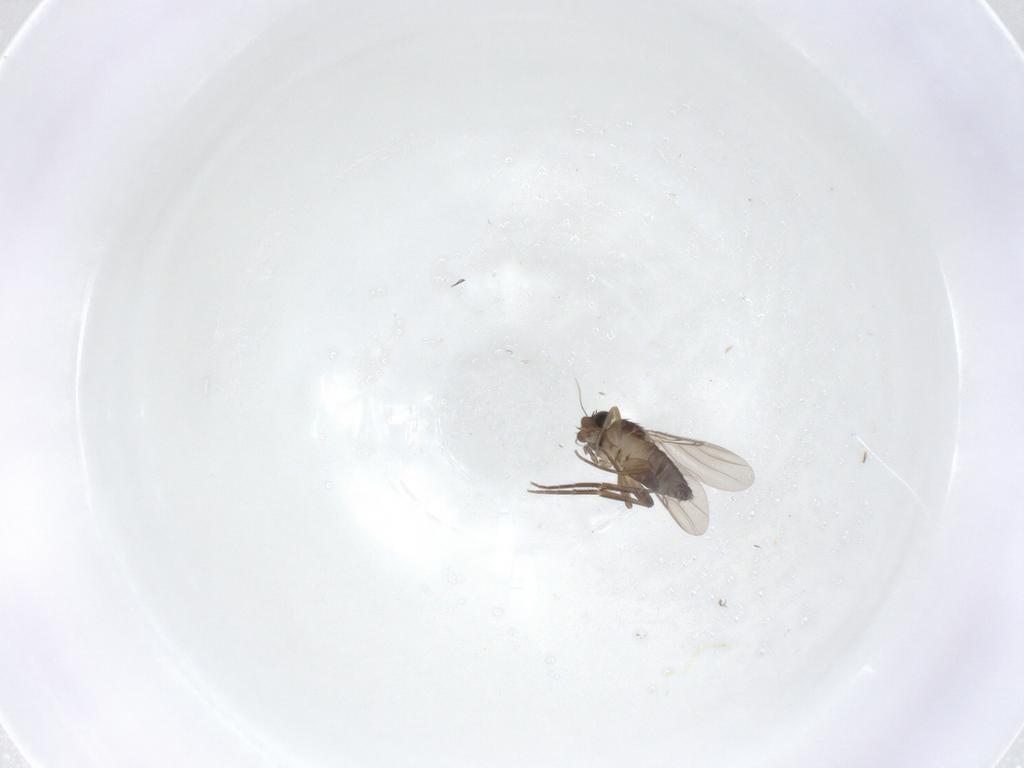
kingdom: Animalia
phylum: Arthropoda
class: Insecta
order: Diptera
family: Phoridae
